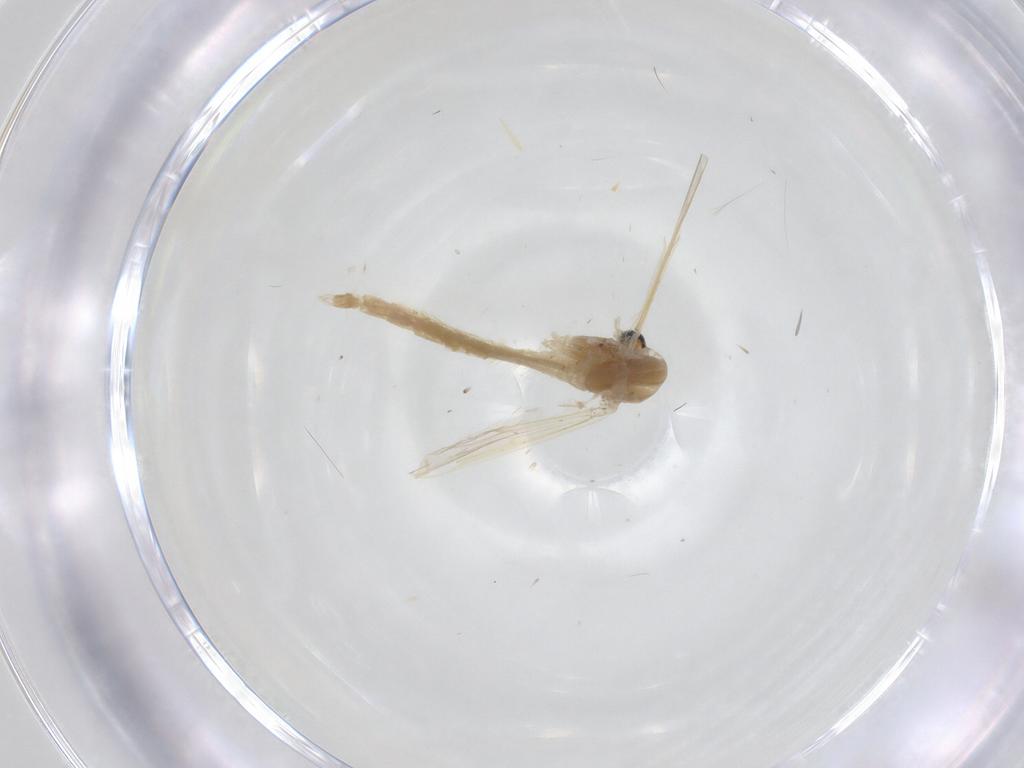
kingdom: Animalia
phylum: Arthropoda
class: Insecta
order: Diptera
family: Chironomidae
